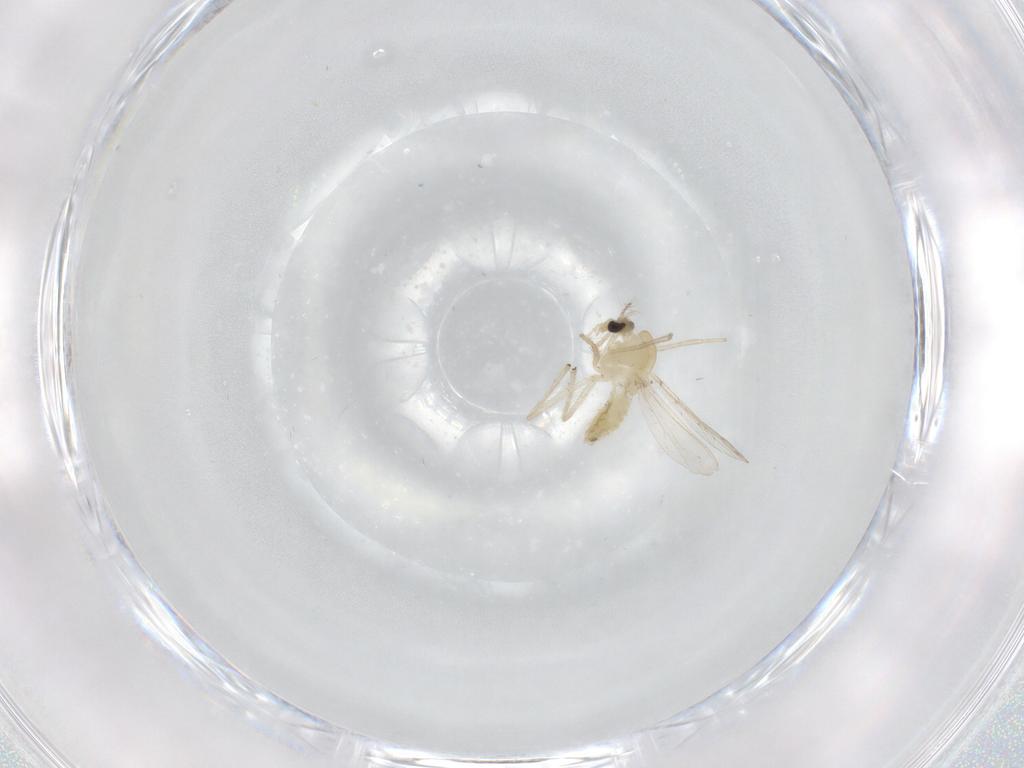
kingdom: Animalia
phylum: Arthropoda
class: Insecta
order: Diptera
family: Chironomidae
